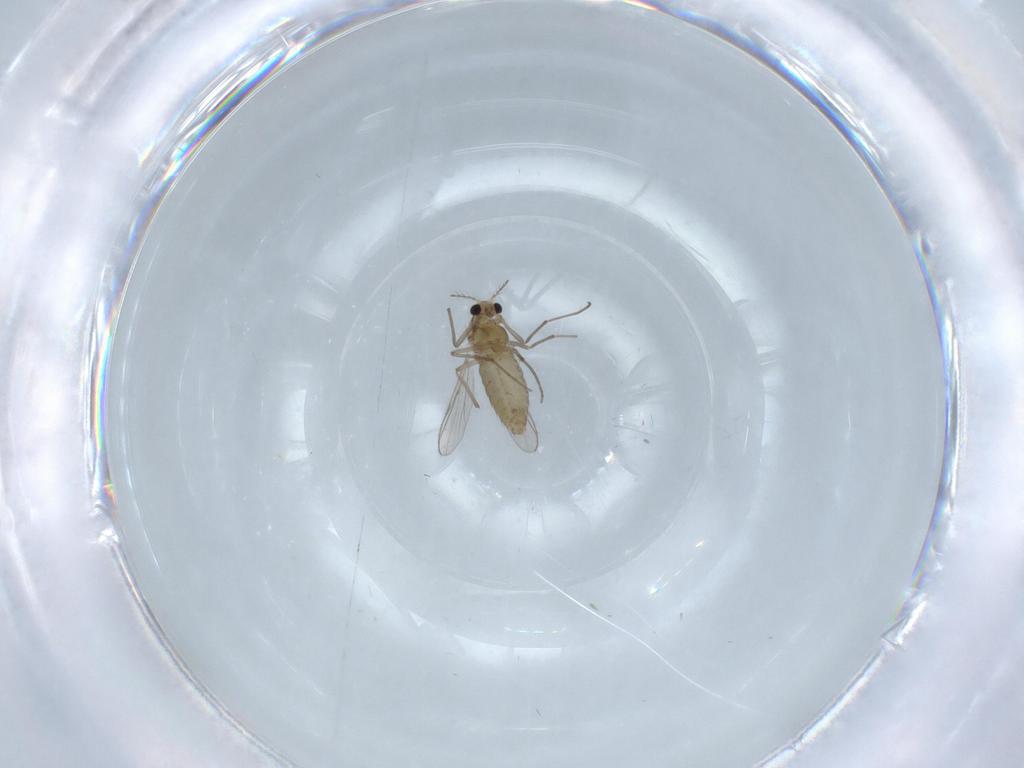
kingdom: Animalia
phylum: Arthropoda
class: Insecta
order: Diptera
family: Chironomidae
